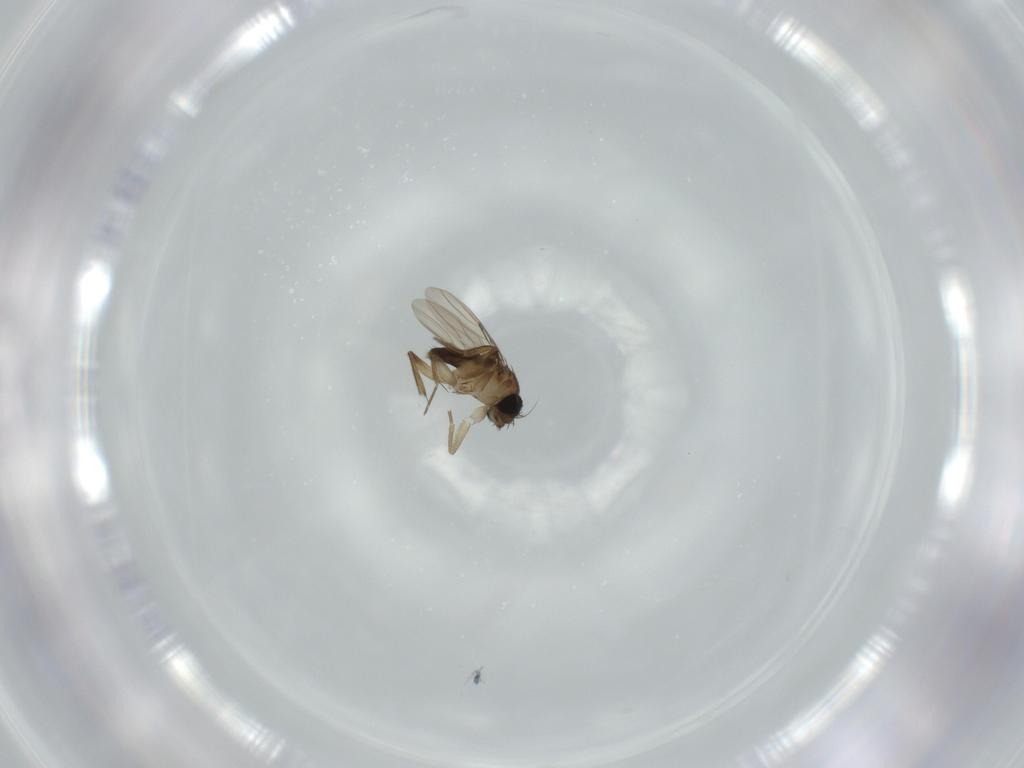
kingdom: Animalia
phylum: Arthropoda
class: Insecta
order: Diptera
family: Phoridae
